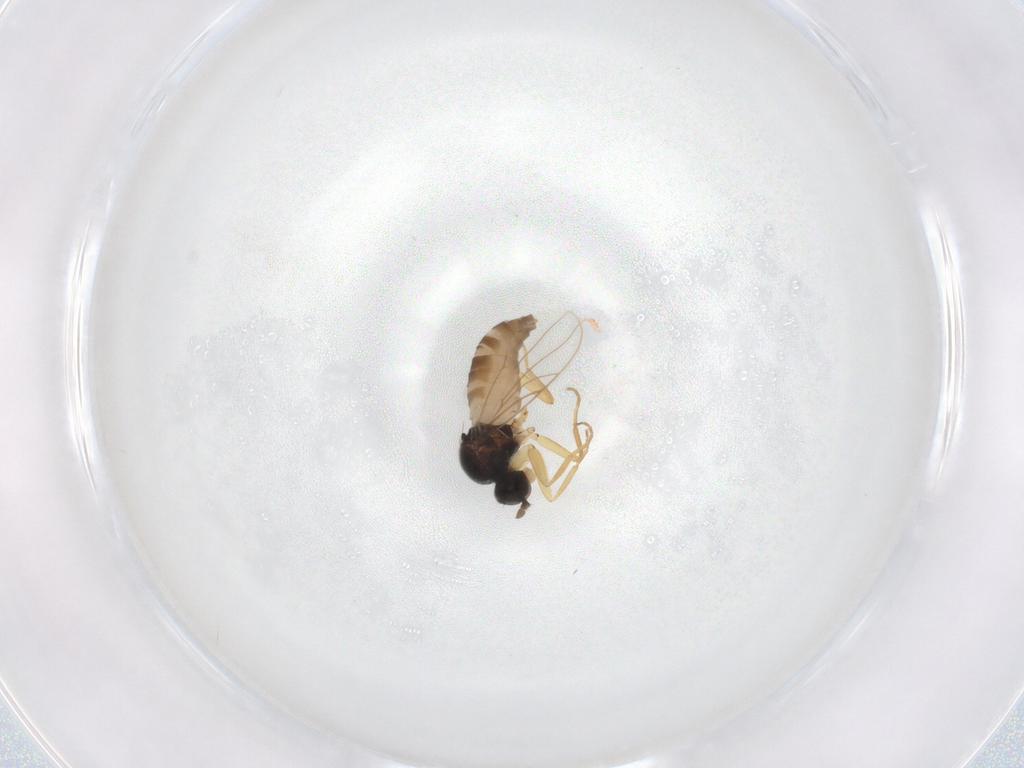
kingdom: Animalia
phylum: Arthropoda
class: Insecta
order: Diptera
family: Hybotidae
